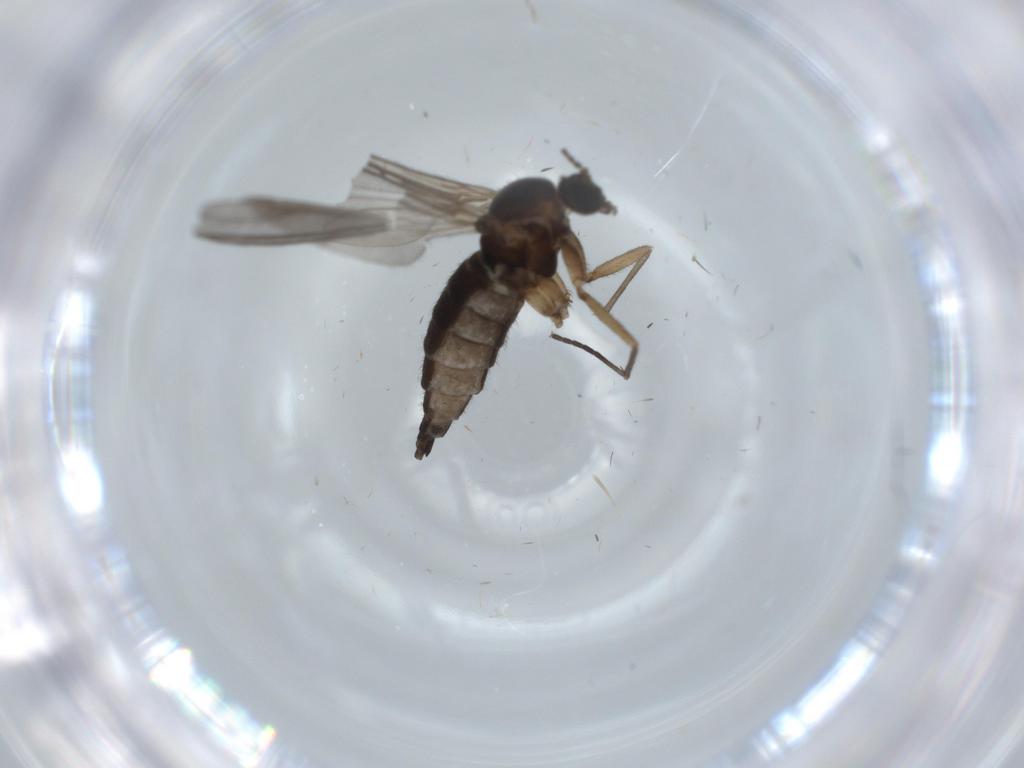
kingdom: Animalia
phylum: Arthropoda
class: Insecta
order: Diptera
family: Sciaridae
